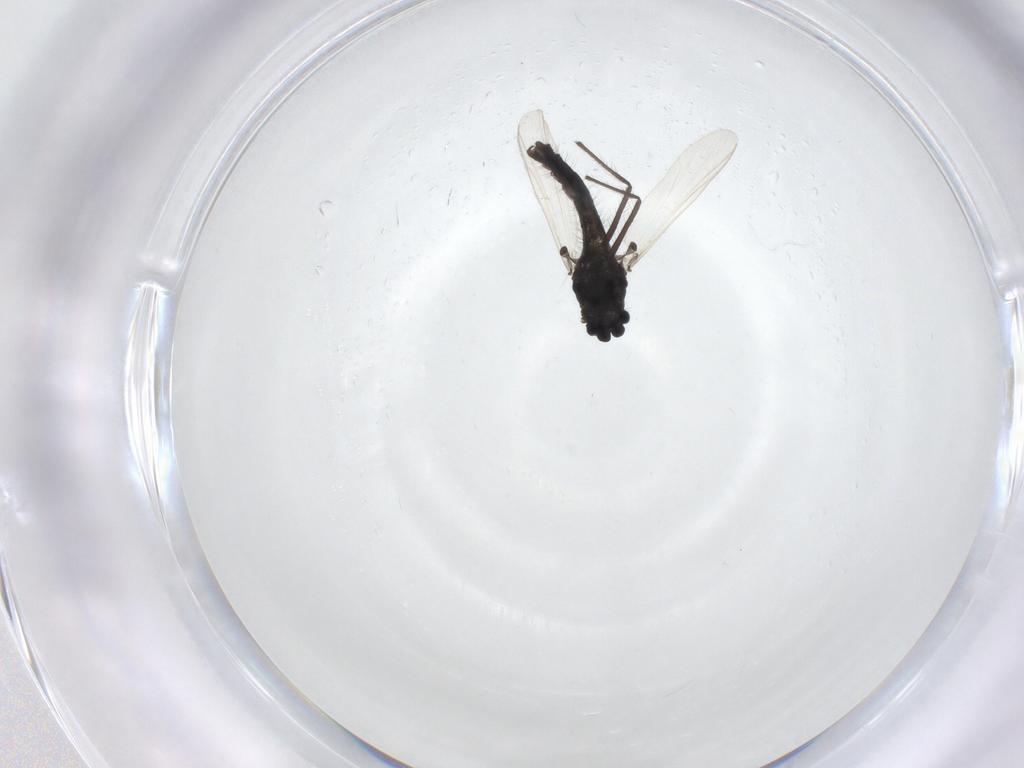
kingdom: Animalia
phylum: Arthropoda
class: Insecta
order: Diptera
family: Chironomidae
